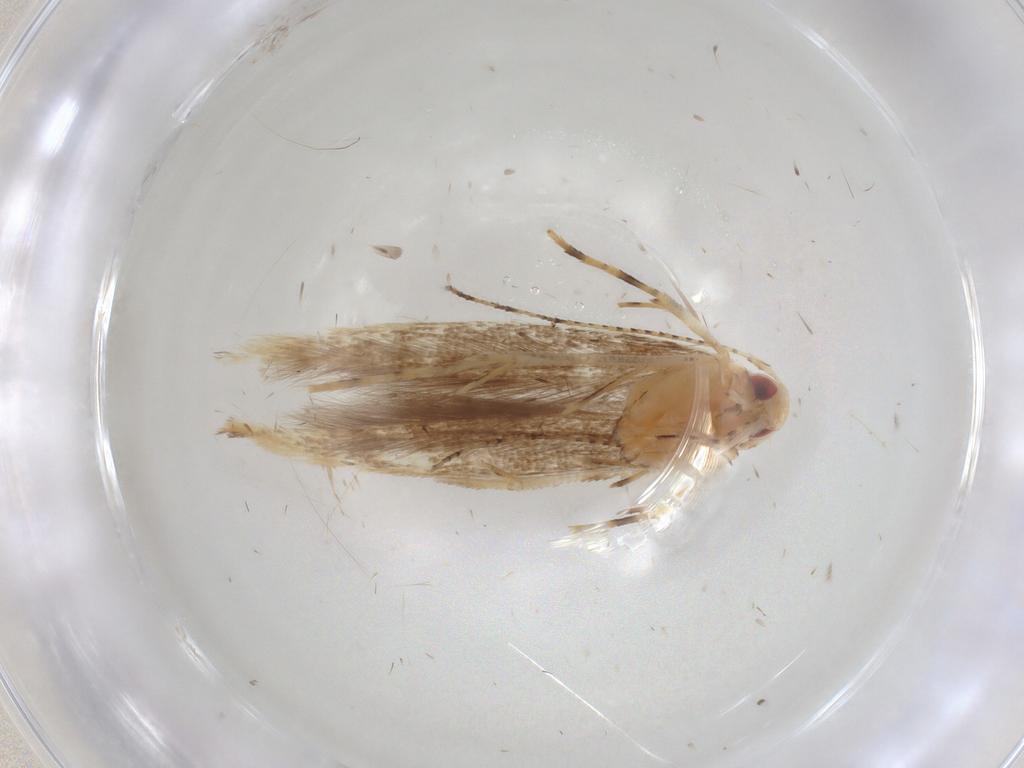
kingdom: Animalia
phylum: Arthropoda
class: Insecta
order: Lepidoptera
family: Cosmopterigidae
